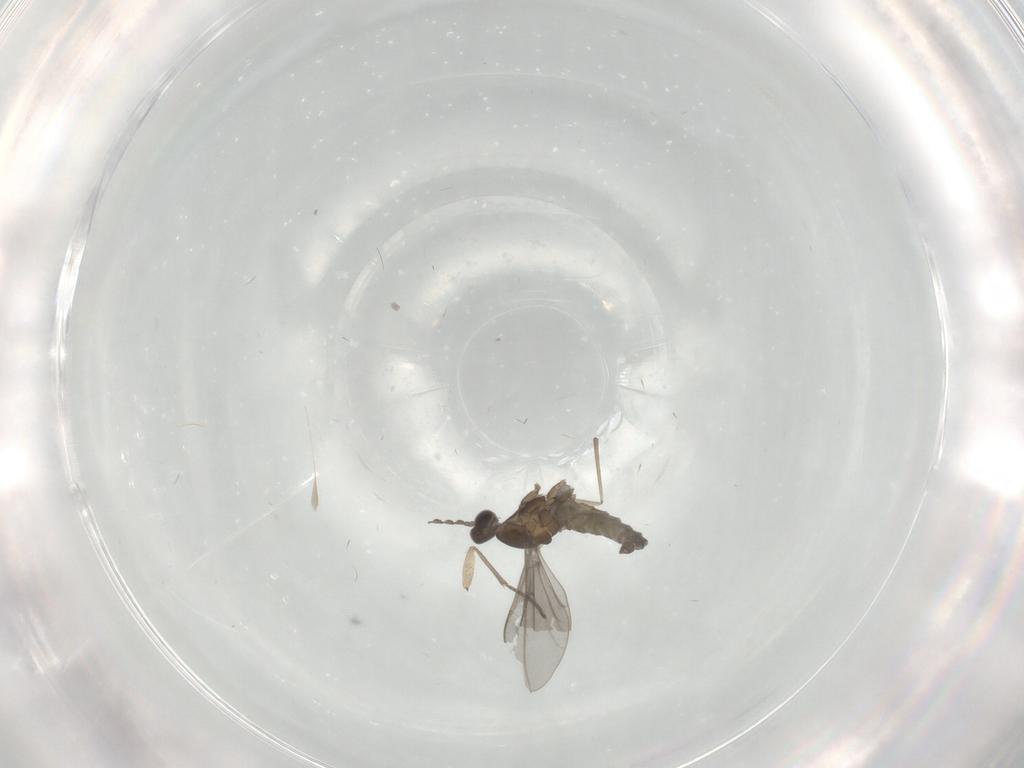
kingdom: Animalia
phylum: Arthropoda
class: Insecta
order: Diptera
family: Cecidomyiidae
